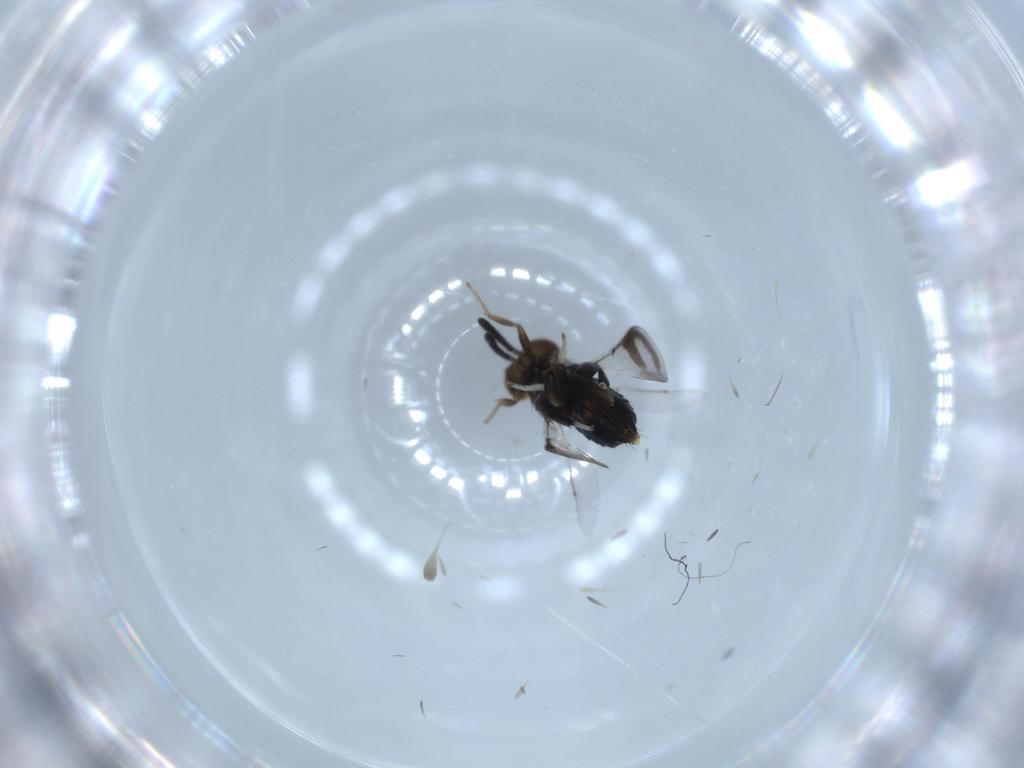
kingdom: Animalia
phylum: Arthropoda
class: Insecta
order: Hymenoptera
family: Aphelinidae
